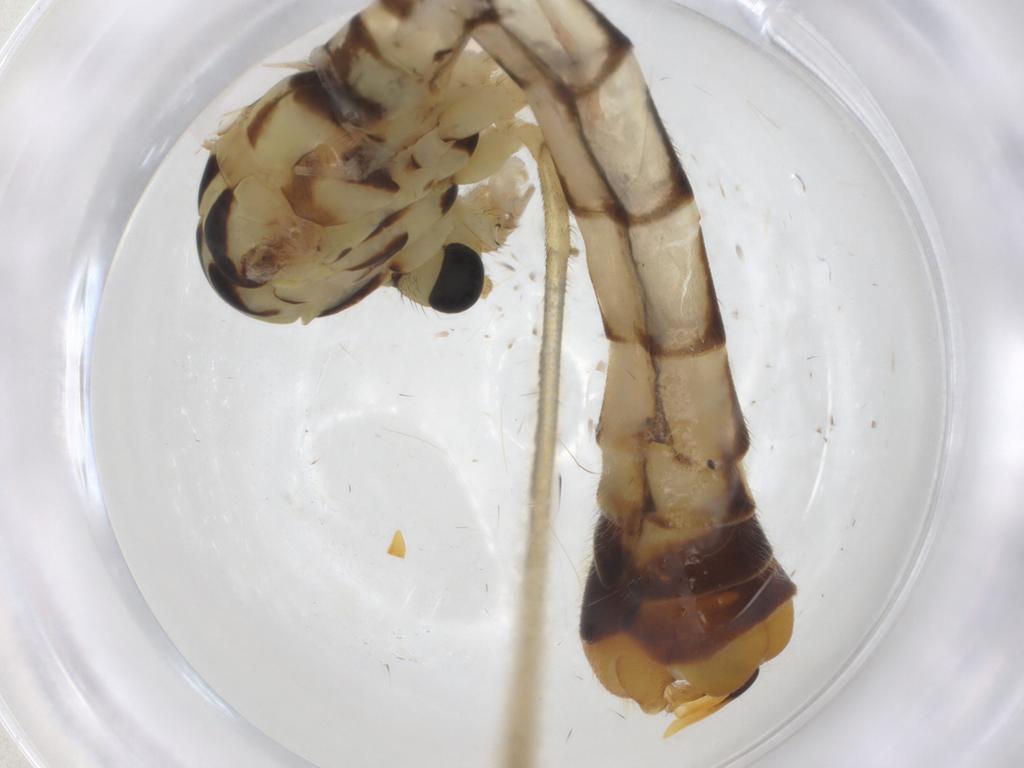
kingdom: Animalia
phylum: Arthropoda
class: Insecta
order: Diptera
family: Tipulidae
